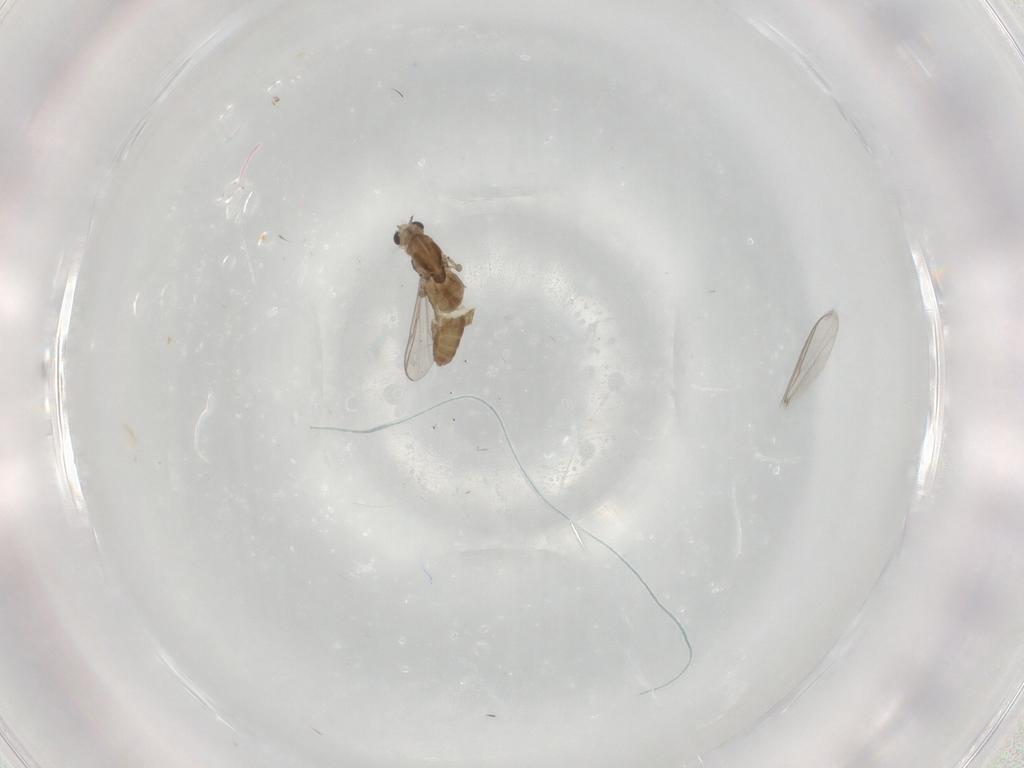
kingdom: Animalia
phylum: Arthropoda
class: Insecta
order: Diptera
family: Chironomidae
